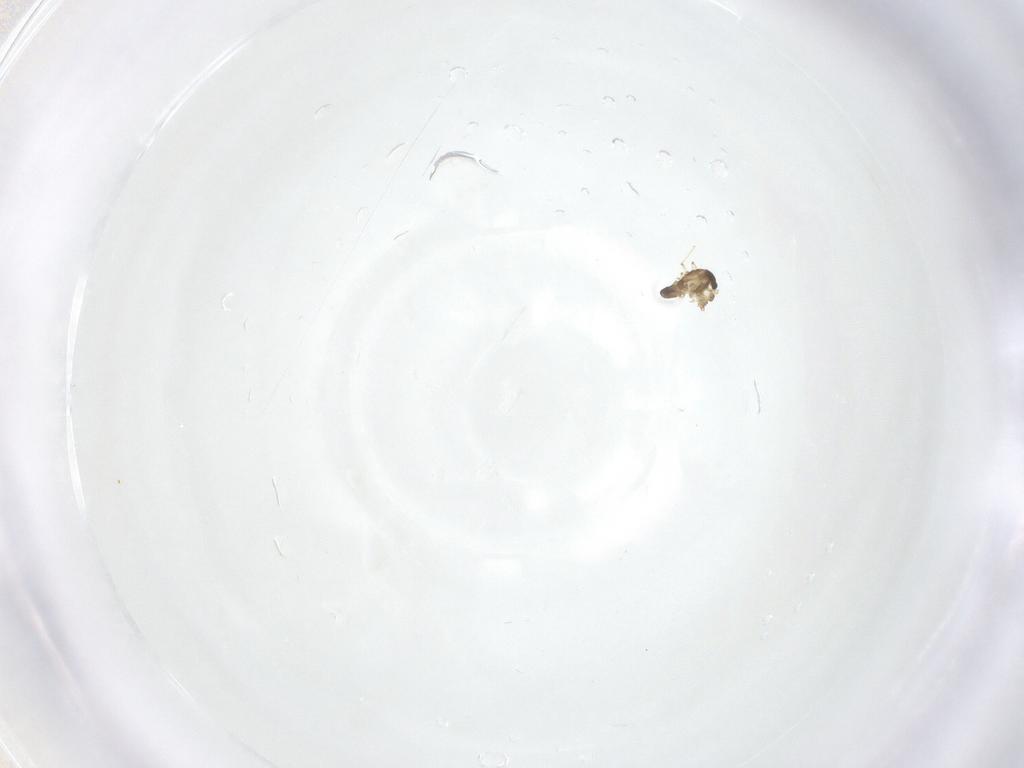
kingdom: Animalia
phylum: Arthropoda
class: Insecta
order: Diptera
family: Chironomidae
